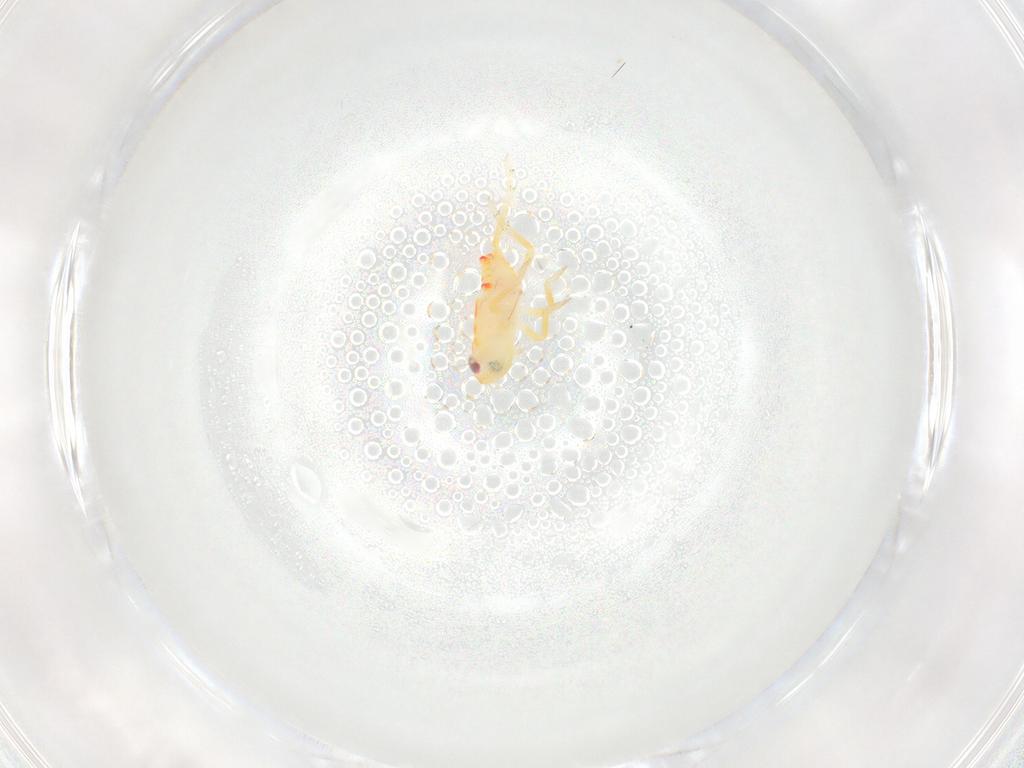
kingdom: Animalia
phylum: Arthropoda
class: Insecta
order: Hemiptera
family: Tropiduchidae
